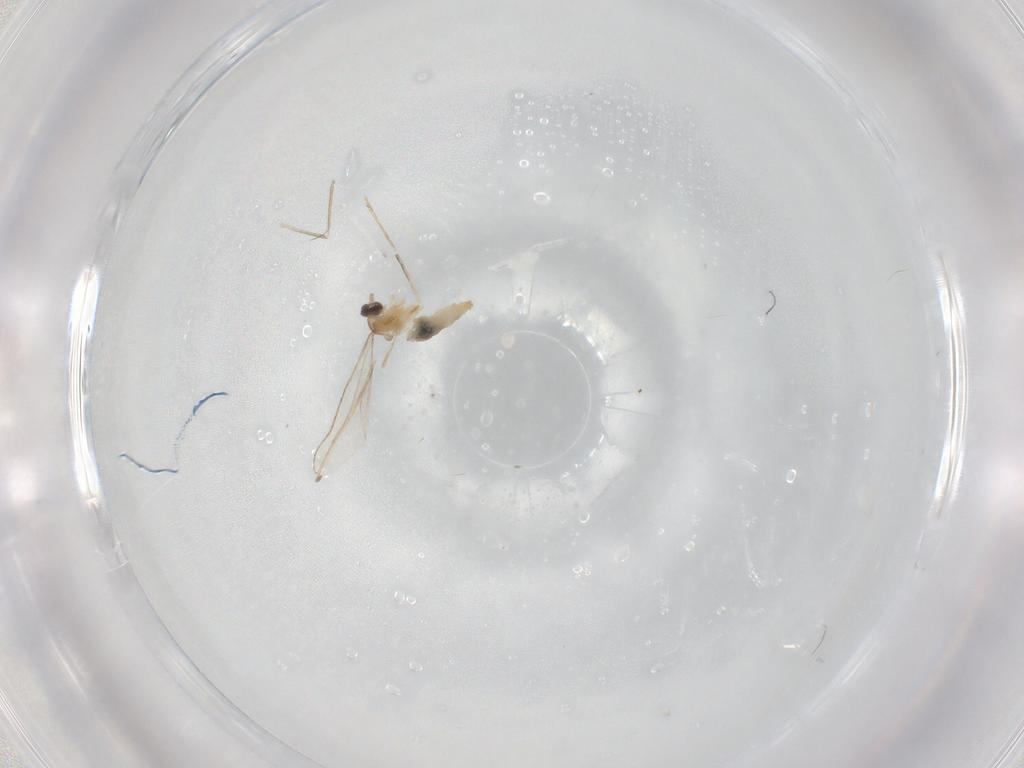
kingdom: Animalia
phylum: Arthropoda
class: Insecta
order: Diptera
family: Cecidomyiidae
